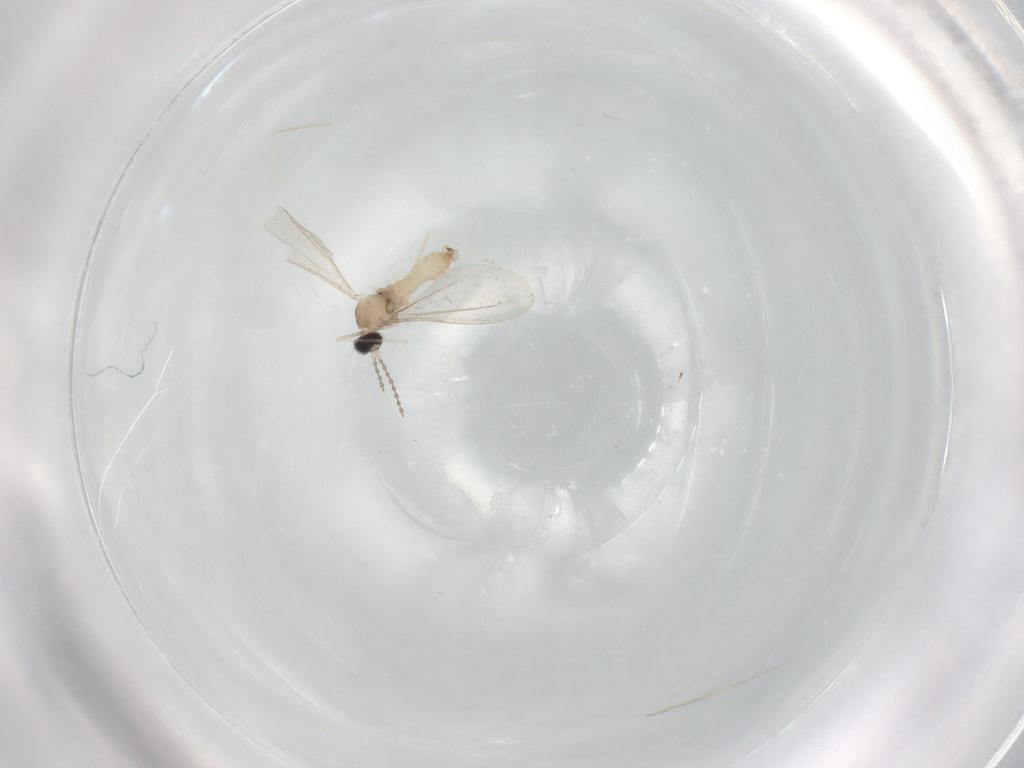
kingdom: Animalia
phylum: Arthropoda
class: Insecta
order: Diptera
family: Cecidomyiidae
